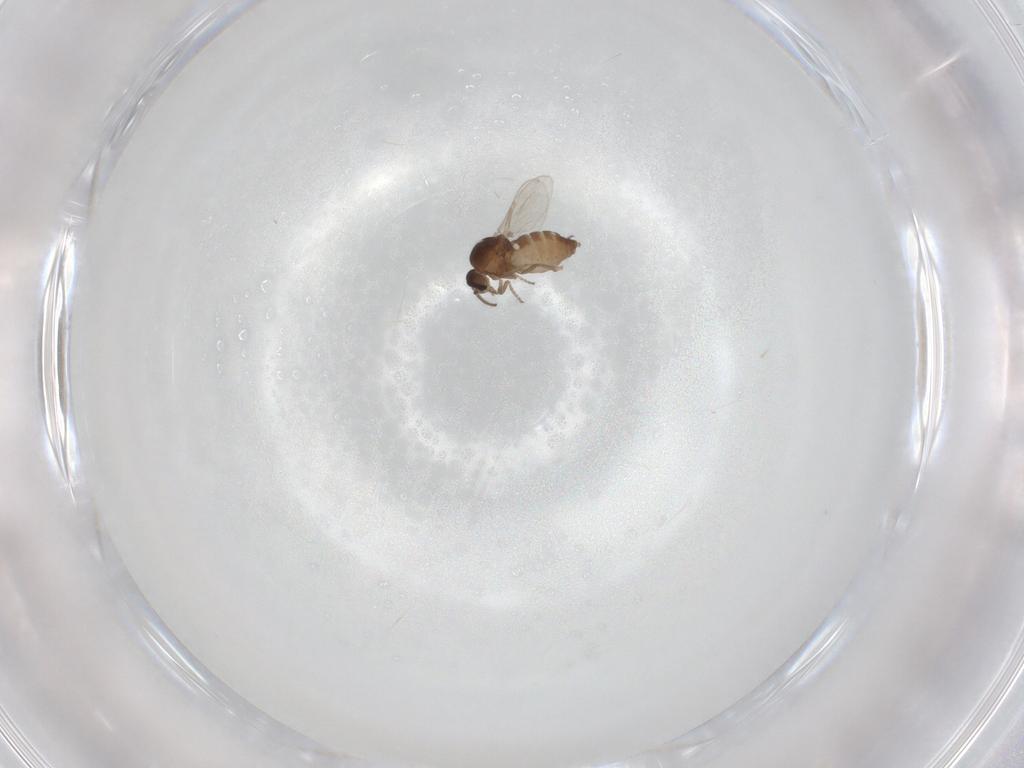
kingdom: Animalia
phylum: Arthropoda
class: Insecta
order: Diptera
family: Ceratopogonidae
